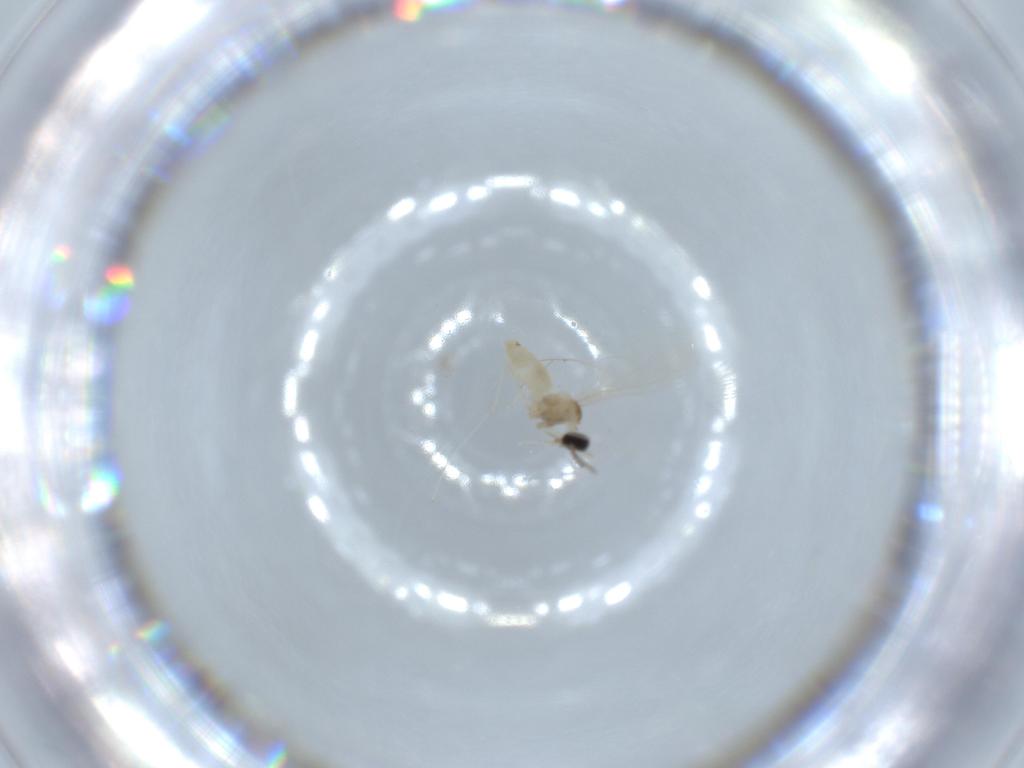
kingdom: Animalia
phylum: Arthropoda
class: Insecta
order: Diptera
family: Cecidomyiidae
